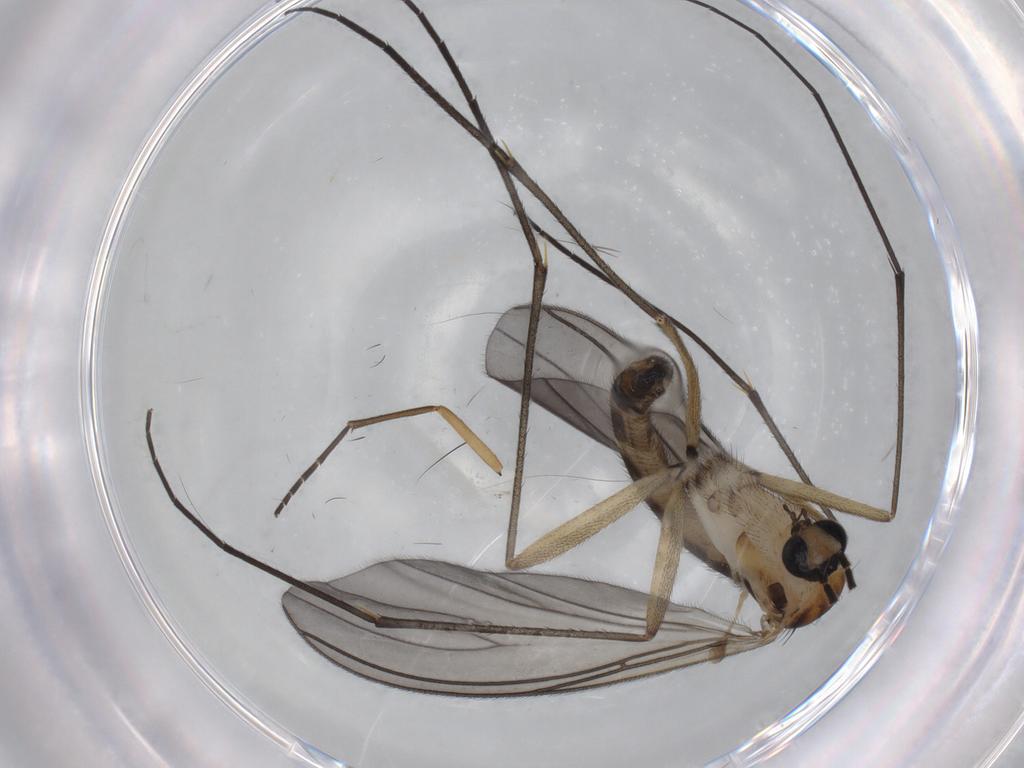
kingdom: Animalia
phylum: Arthropoda
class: Insecta
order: Diptera
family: Sciaridae
